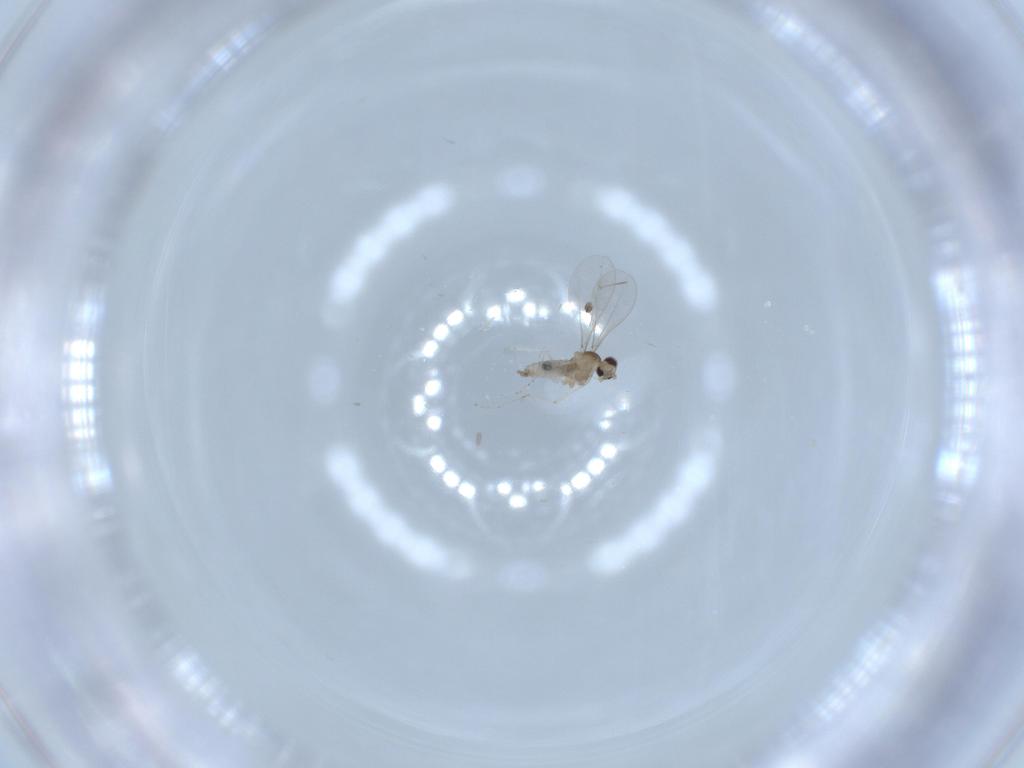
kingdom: Animalia
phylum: Arthropoda
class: Insecta
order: Diptera
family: Cecidomyiidae
